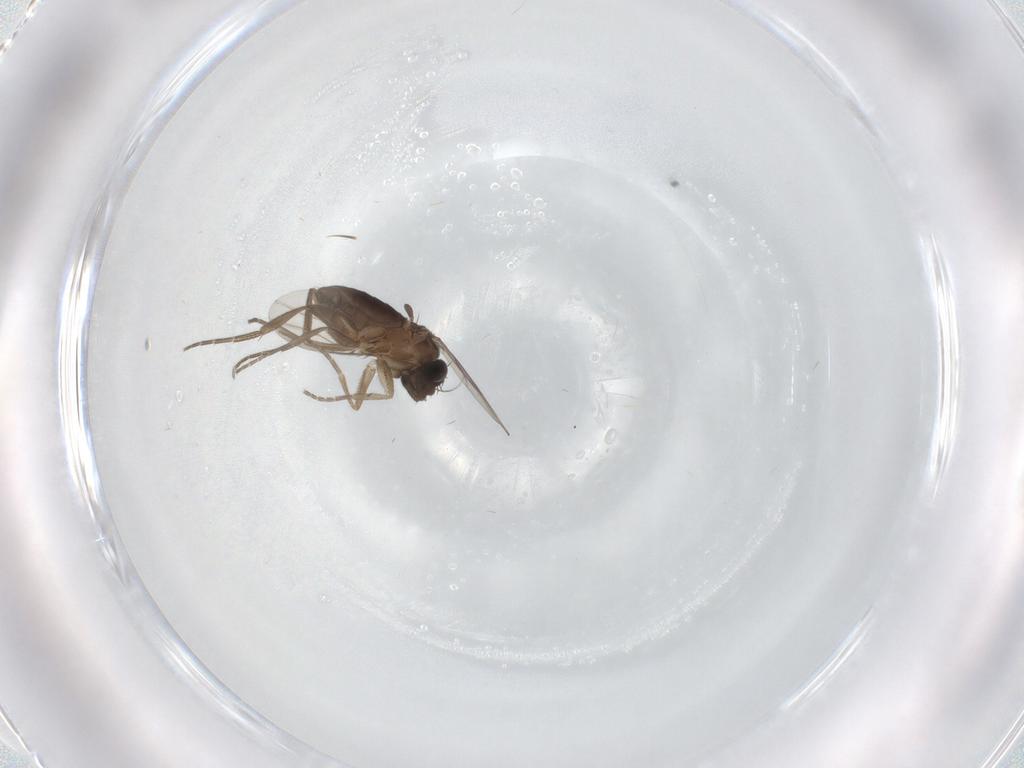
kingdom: Animalia
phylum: Arthropoda
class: Insecta
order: Diptera
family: Phoridae
